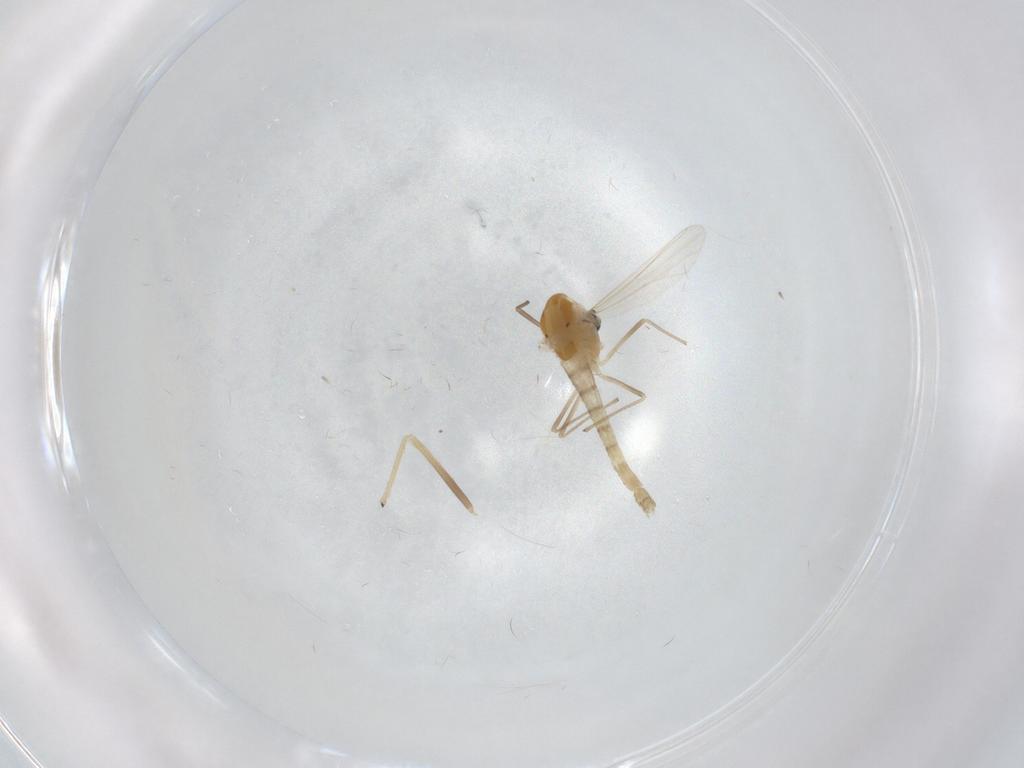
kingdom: Animalia
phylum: Arthropoda
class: Insecta
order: Diptera
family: Chironomidae
